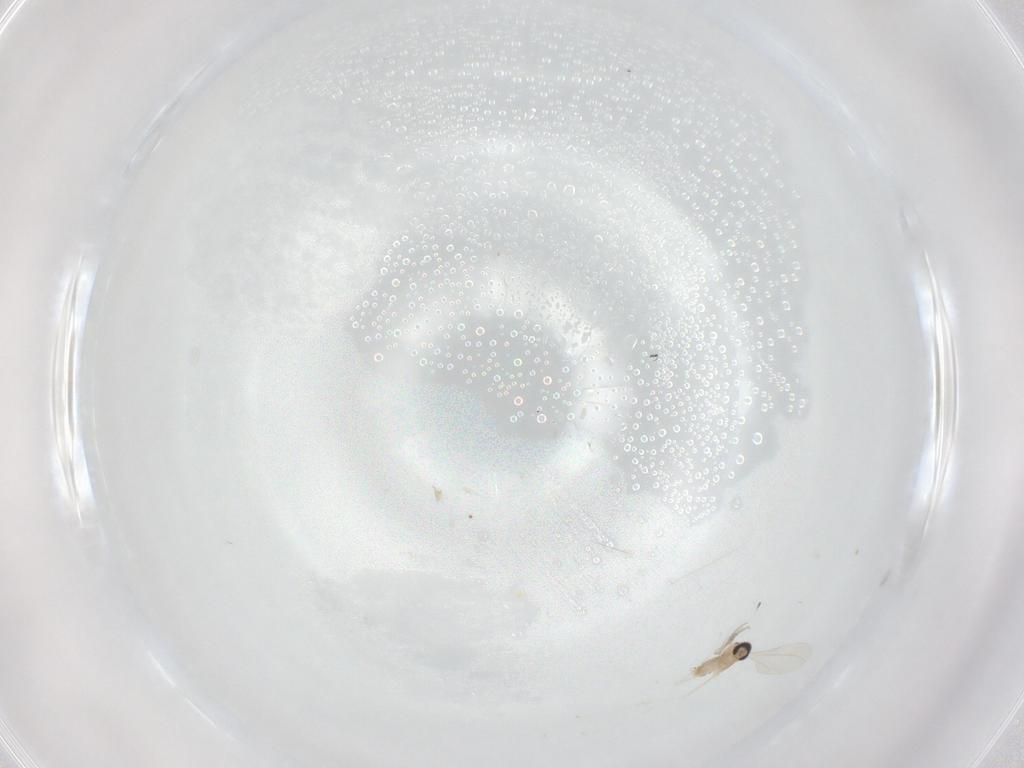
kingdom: Animalia
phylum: Arthropoda
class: Insecta
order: Diptera
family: Cecidomyiidae
